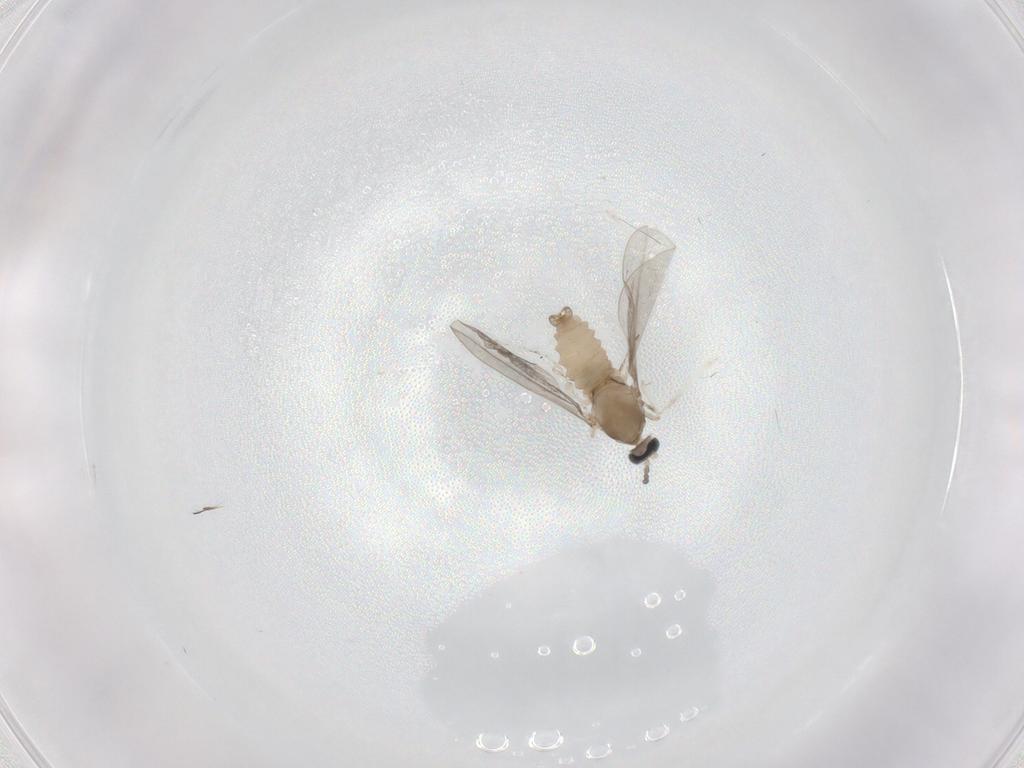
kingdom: Animalia
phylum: Arthropoda
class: Insecta
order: Diptera
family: Cecidomyiidae
